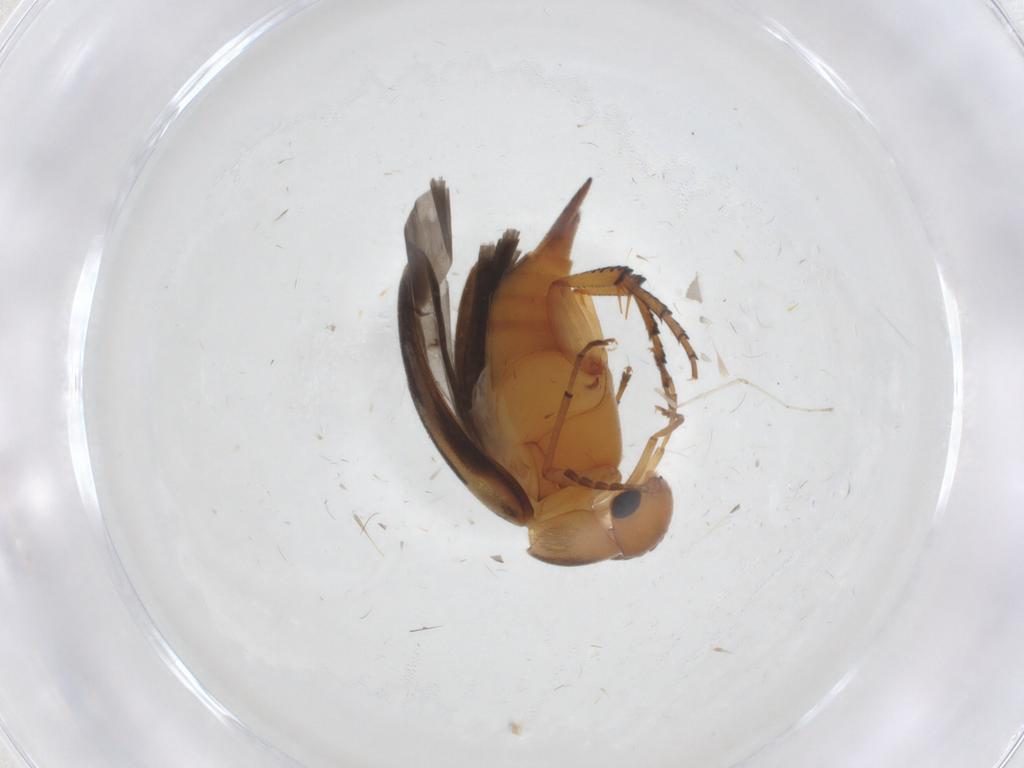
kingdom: Animalia
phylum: Arthropoda
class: Insecta
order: Coleoptera
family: Mordellidae
